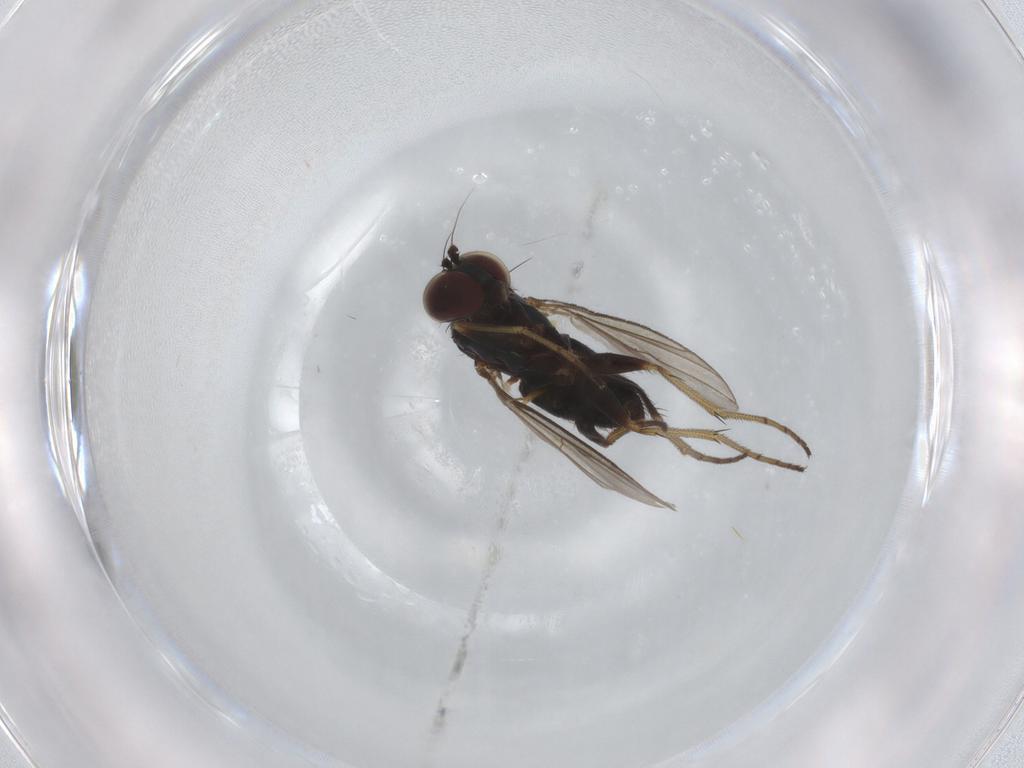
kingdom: Animalia
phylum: Arthropoda
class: Insecta
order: Diptera
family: Dolichopodidae
